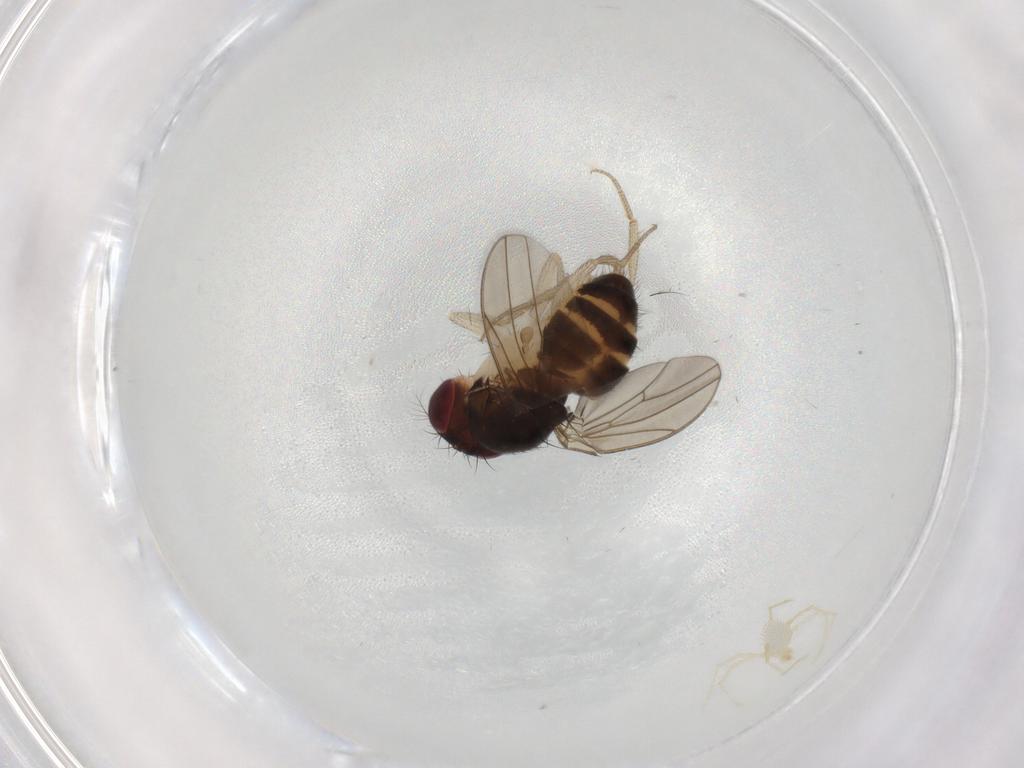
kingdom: Animalia
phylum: Arthropoda
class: Insecta
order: Diptera
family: Drosophilidae
